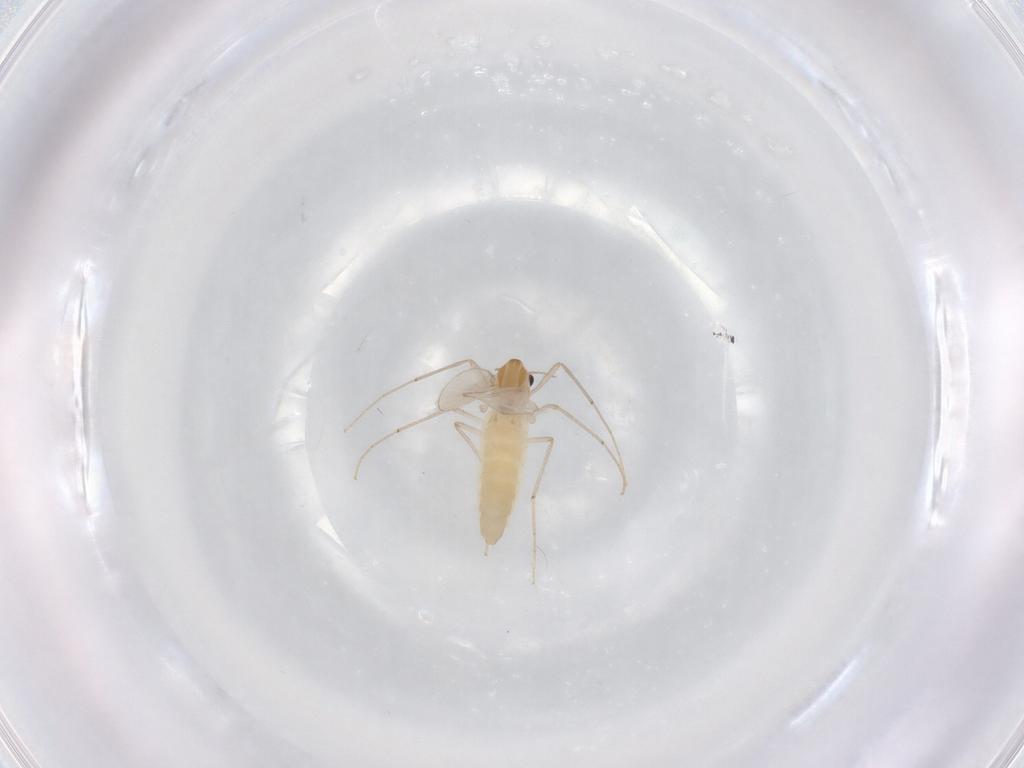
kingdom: Animalia
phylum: Arthropoda
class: Insecta
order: Diptera
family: Chironomidae
